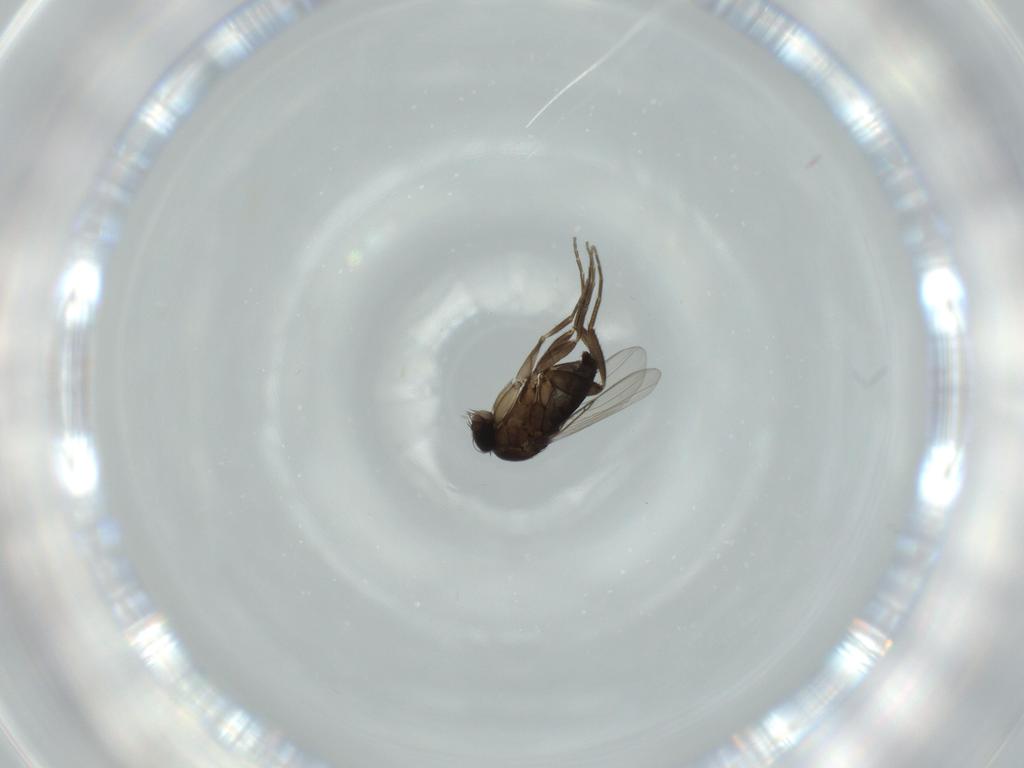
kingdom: Animalia
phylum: Arthropoda
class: Insecta
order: Diptera
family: Phoridae
